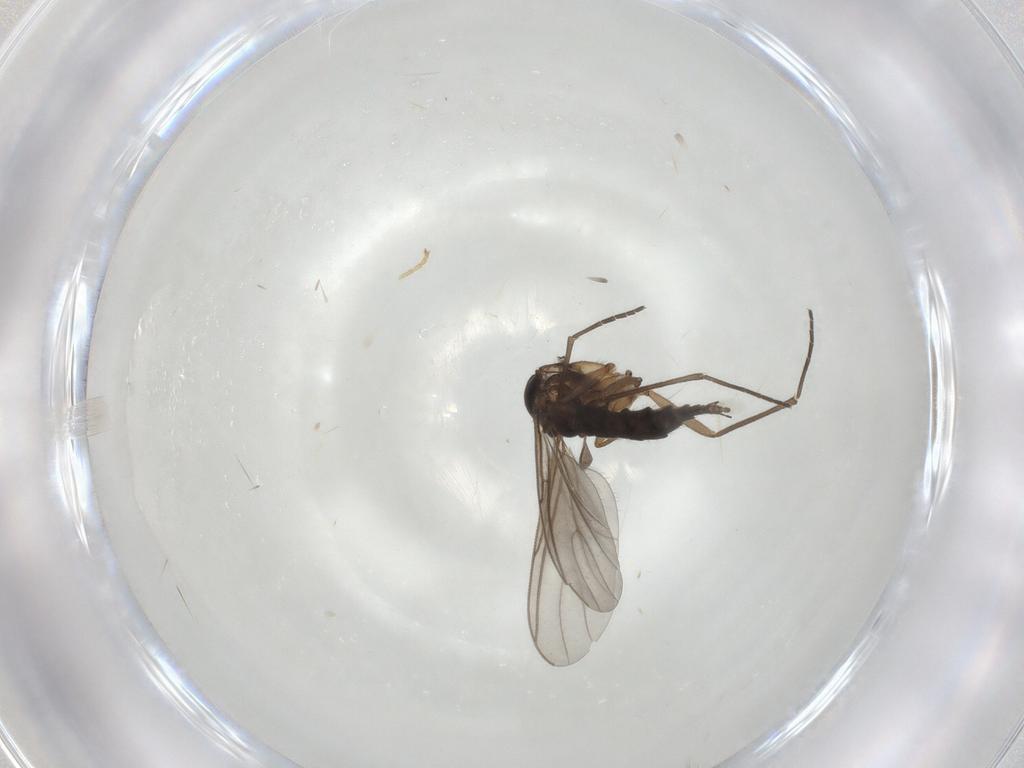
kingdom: Animalia
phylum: Arthropoda
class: Insecta
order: Diptera
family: Sciaridae
